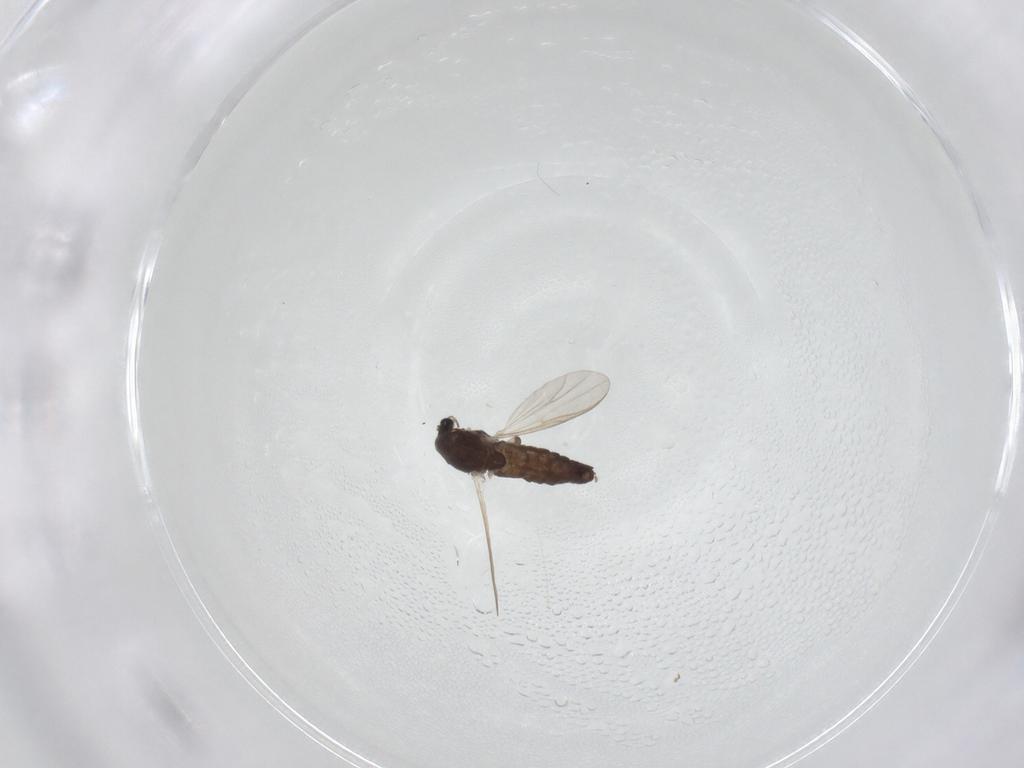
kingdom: Animalia
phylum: Arthropoda
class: Insecta
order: Diptera
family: Chironomidae
